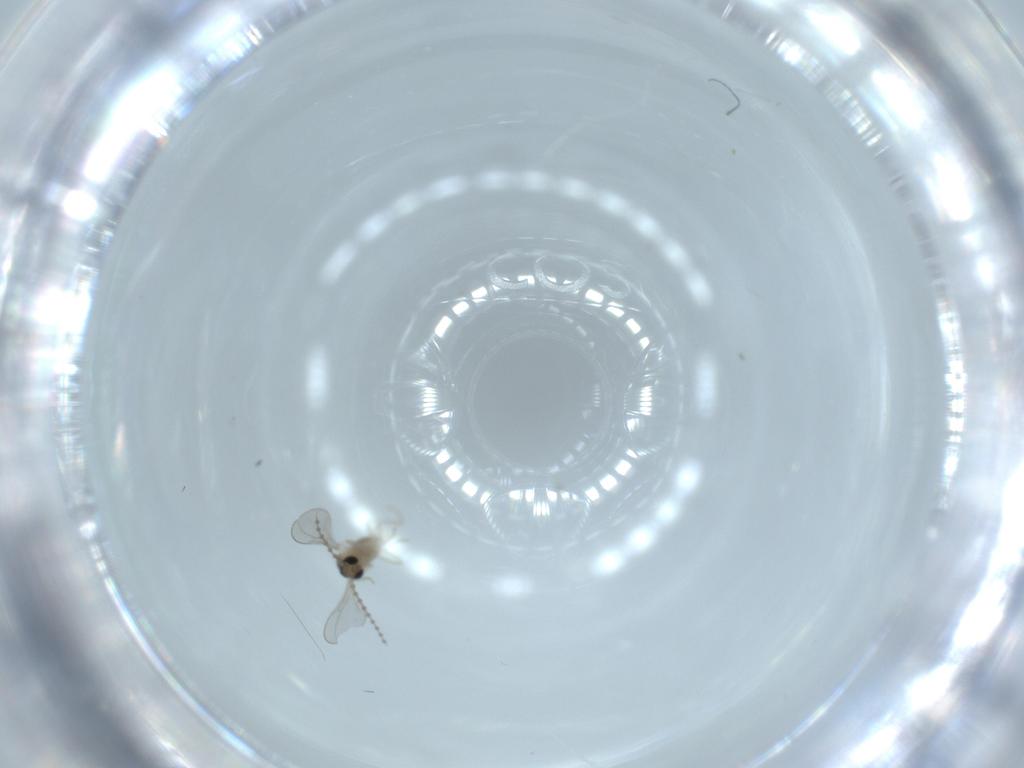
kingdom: Animalia
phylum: Arthropoda
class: Insecta
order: Diptera
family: Cecidomyiidae
